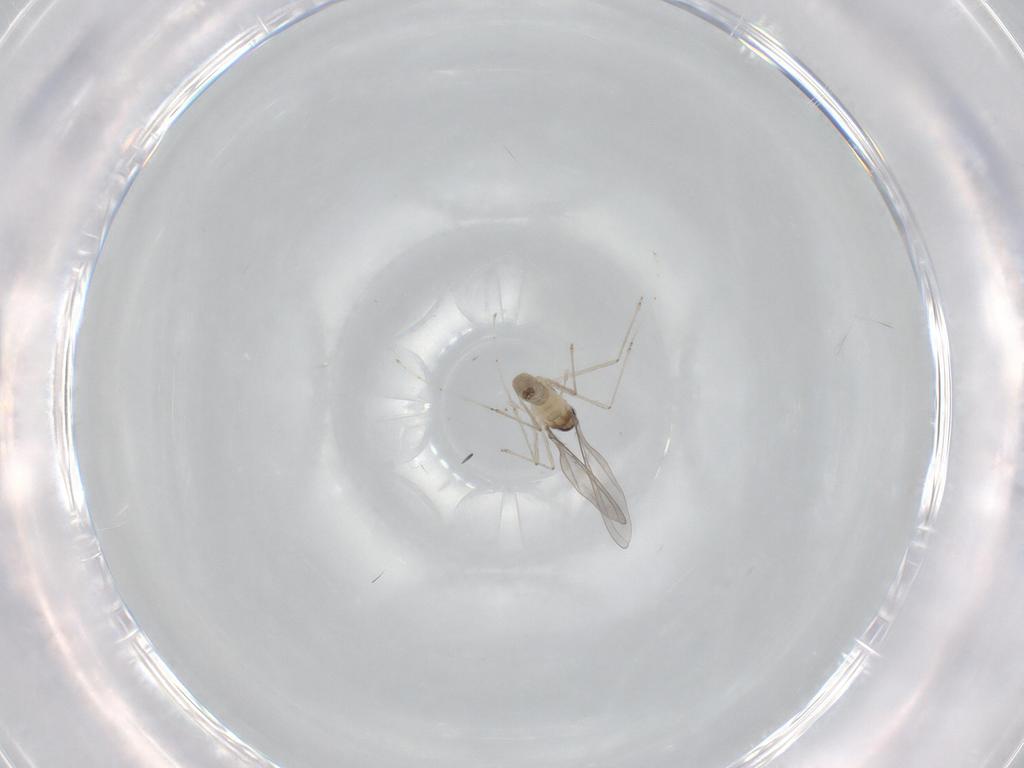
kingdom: Animalia
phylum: Arthropoda
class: Insecta
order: Diptera
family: Cecidomyiidae
